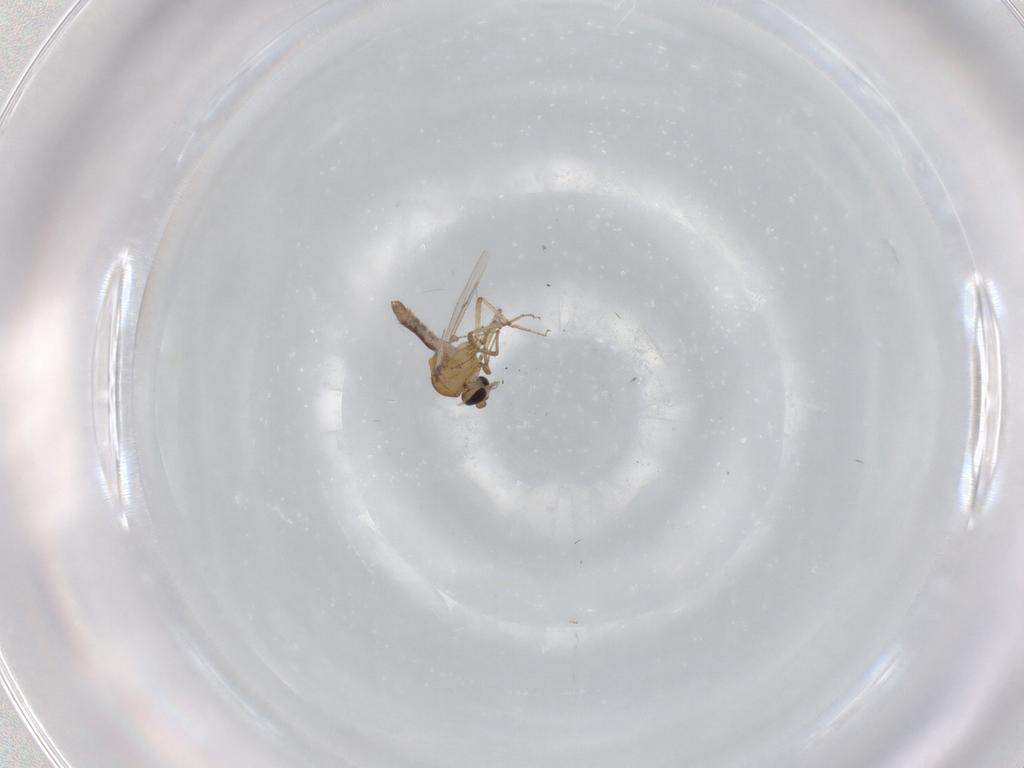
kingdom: Animalia
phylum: Arthropoda
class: Insecta
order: Diptera
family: Ceratopogonidae
